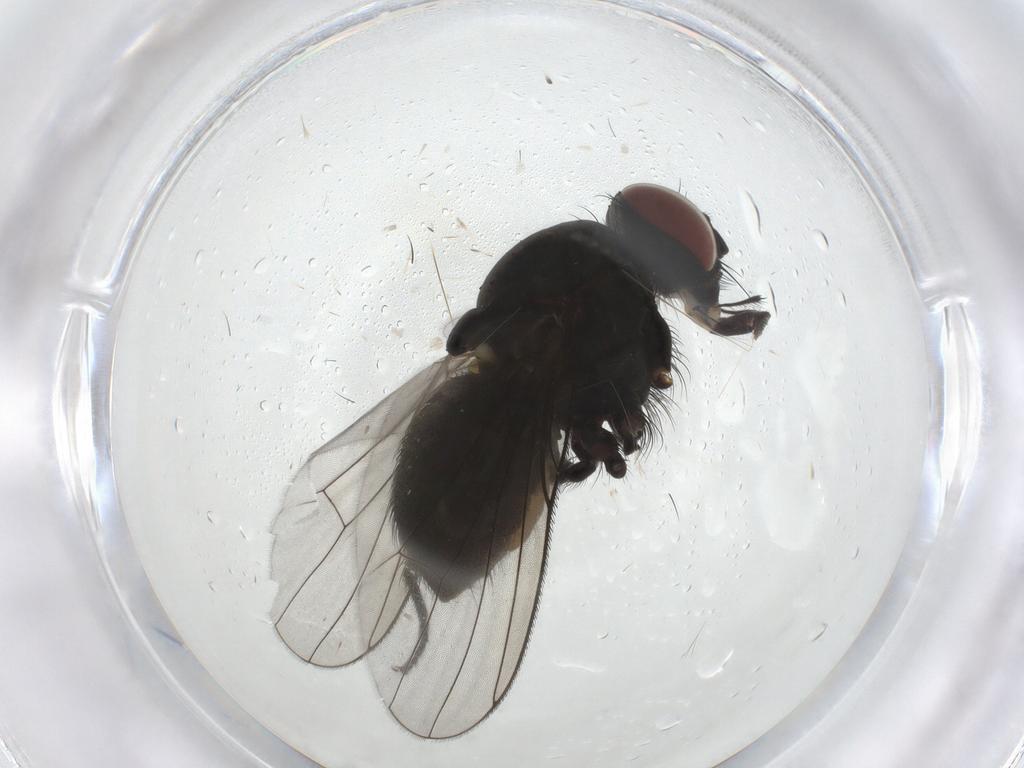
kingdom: Animalia
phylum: Arthropoda
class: Insecta
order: Diptera
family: Muscidae
